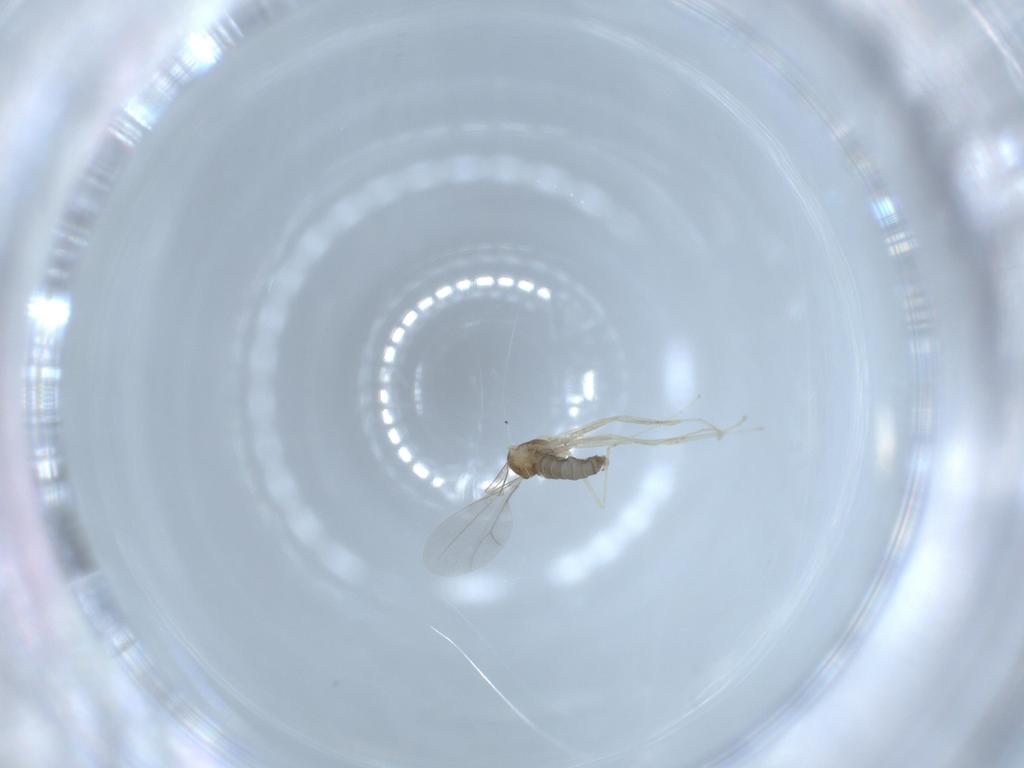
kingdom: Animalia
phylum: Arthropoda
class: Insecta
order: Diptera
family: Cecidomyiidae
